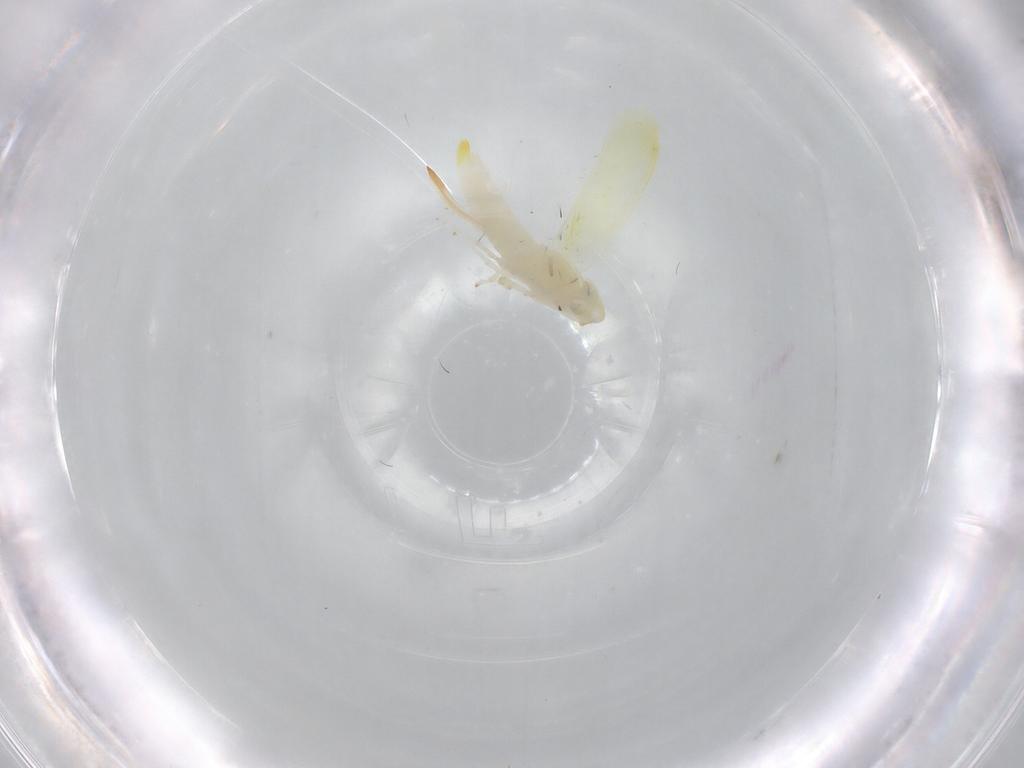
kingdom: Animalia
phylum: Arthropoda
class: Insecta
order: Hemiptera
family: Cicadellidae
